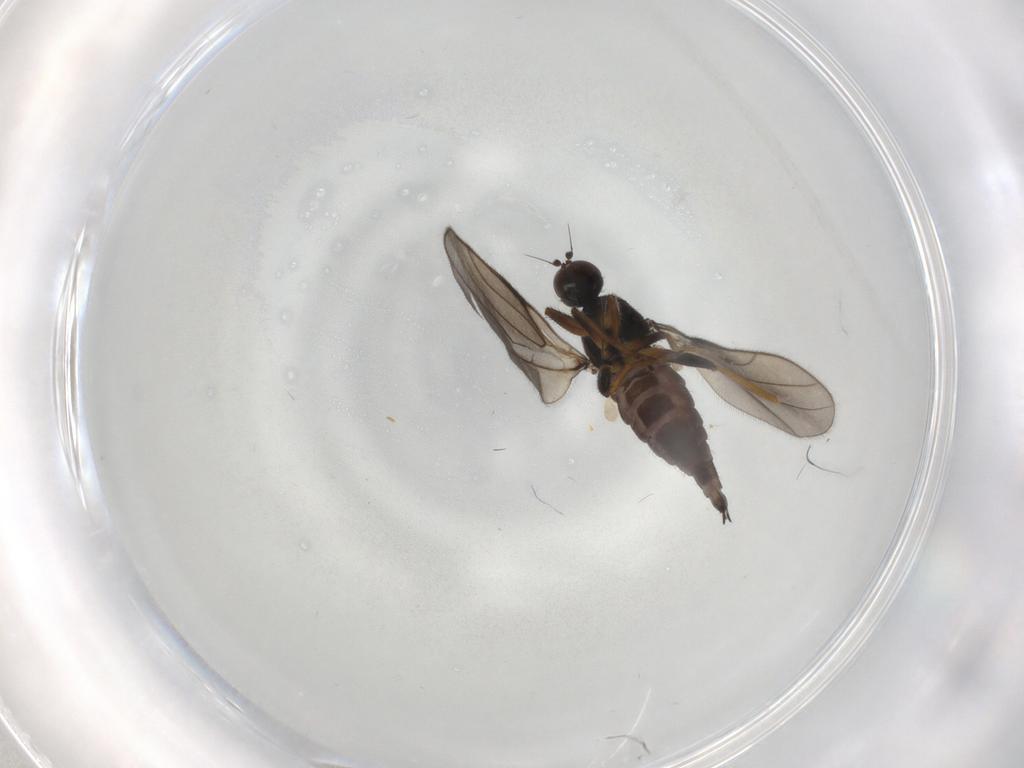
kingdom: Animalia
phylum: Arthropoda
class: Insecta
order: Diptera
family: Hybotidae
